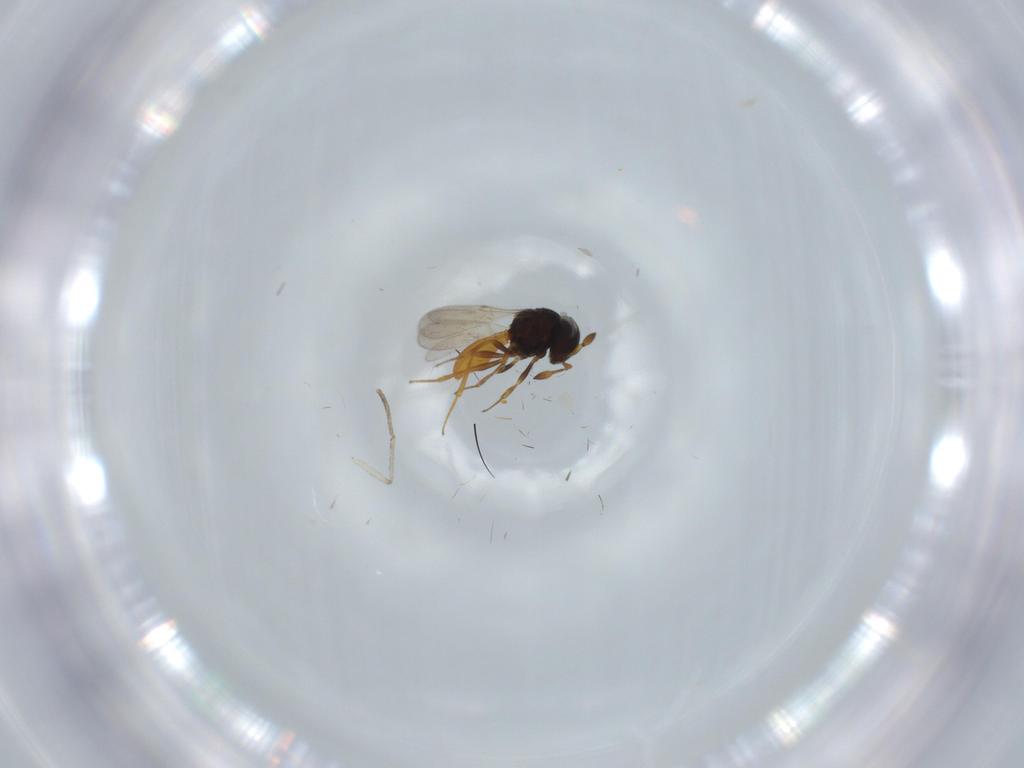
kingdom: Animalia
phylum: Arthropoda
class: Insecta
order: Hymenoptera
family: Scelionidae
